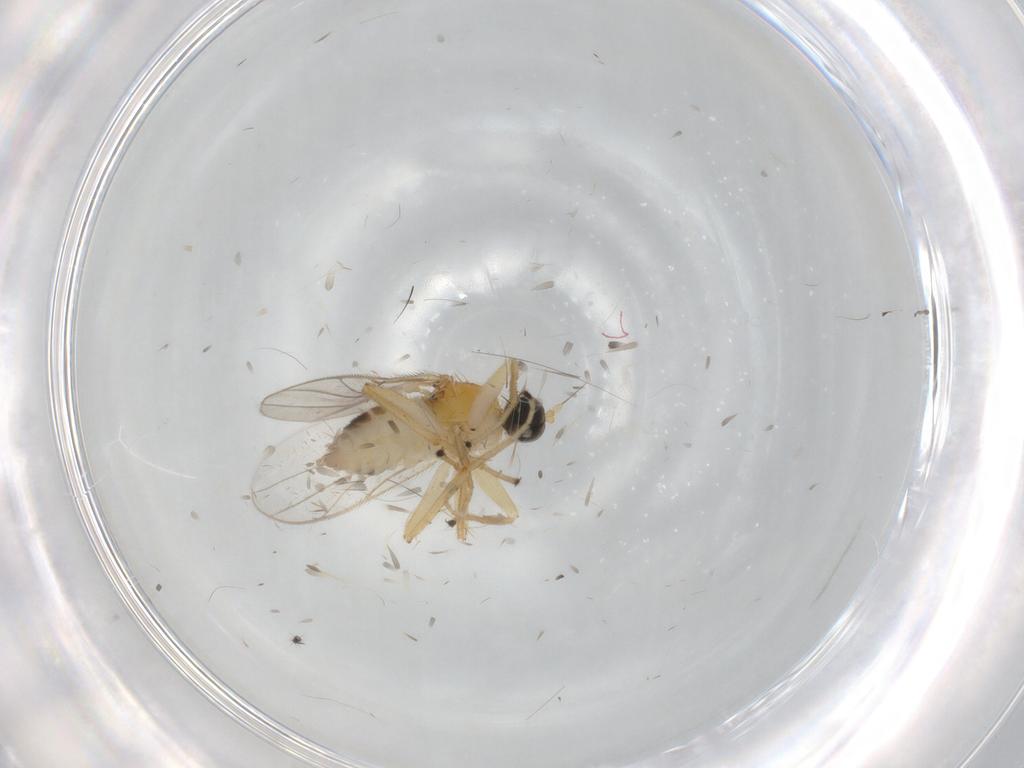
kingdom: Animalia
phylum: Arthropoda
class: Insecta
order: Diptera
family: Hybotidae
